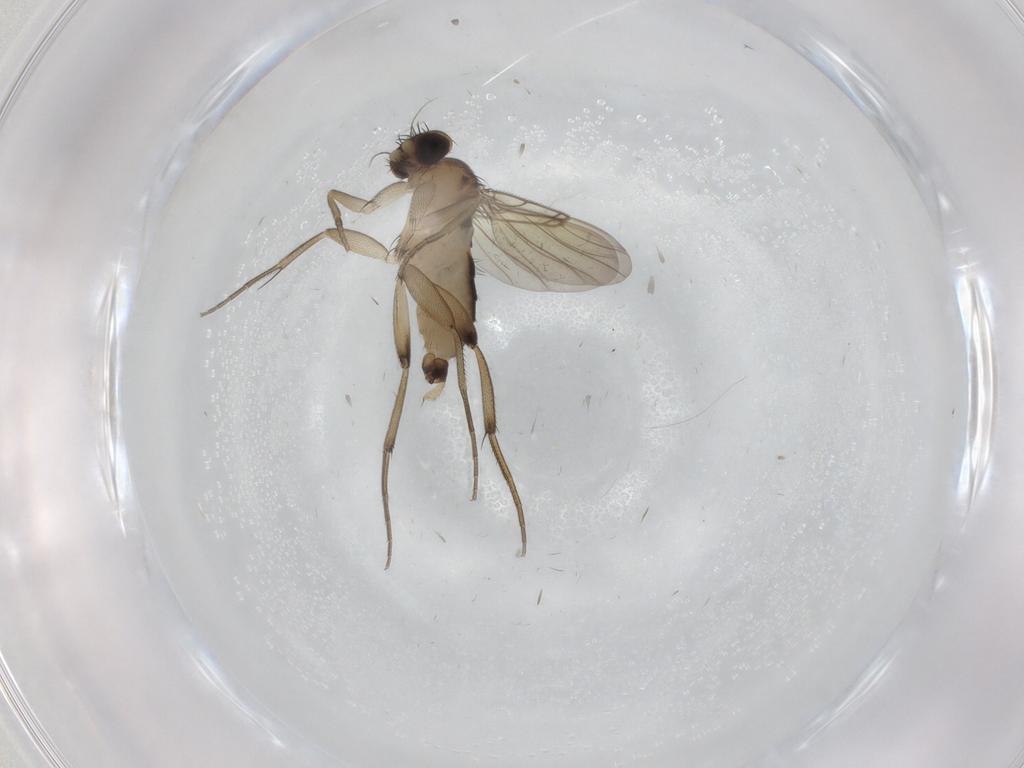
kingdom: Animalia
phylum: Arthropoda
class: Insecta
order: Diptera
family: Phoridae
